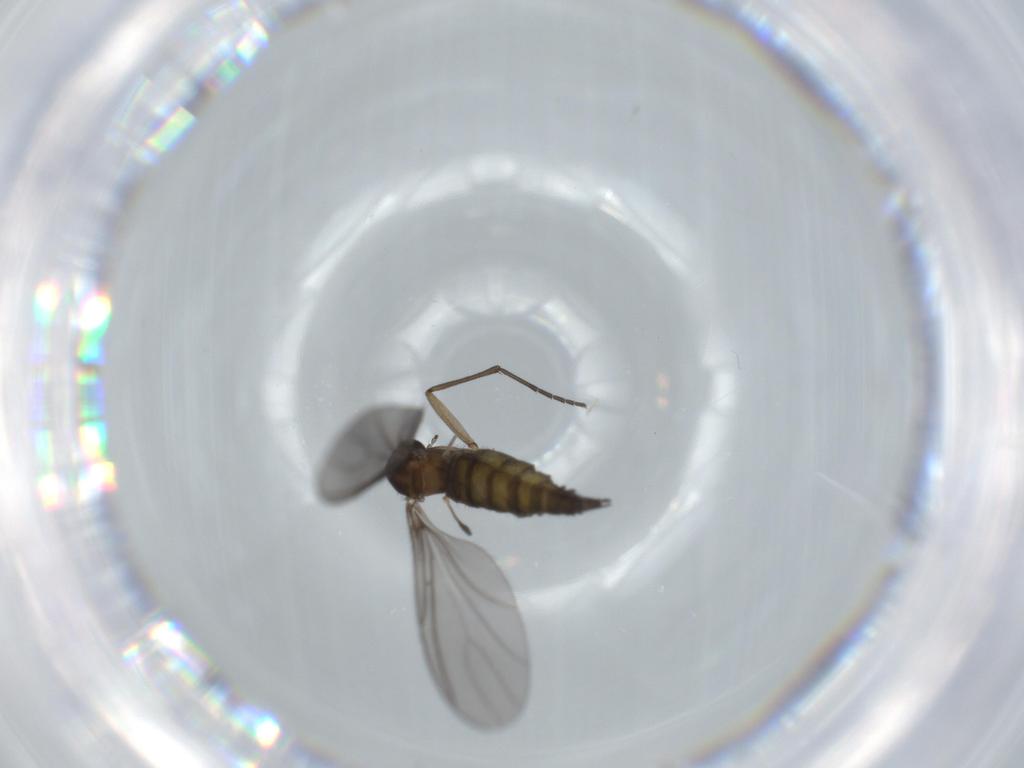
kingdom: Animalia
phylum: Arthropoda
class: Insecta
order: Diptera
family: Sciaridae
